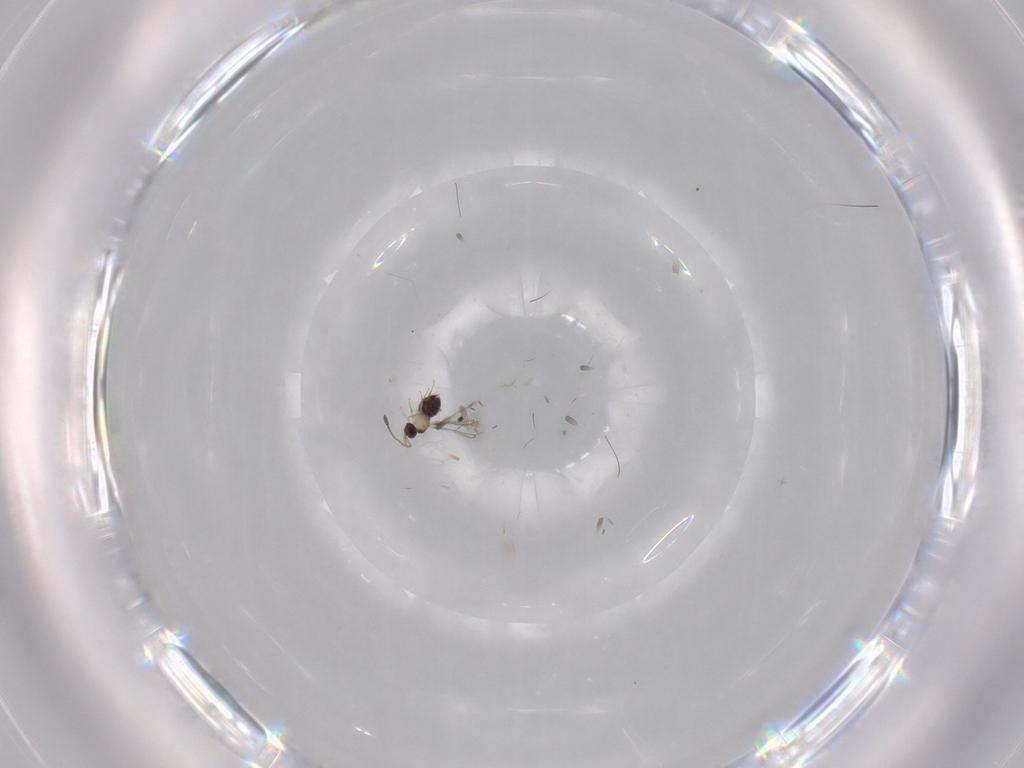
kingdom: Animalia
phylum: Arthropoda
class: Insecta
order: Hymenoptera
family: Mymaridae
